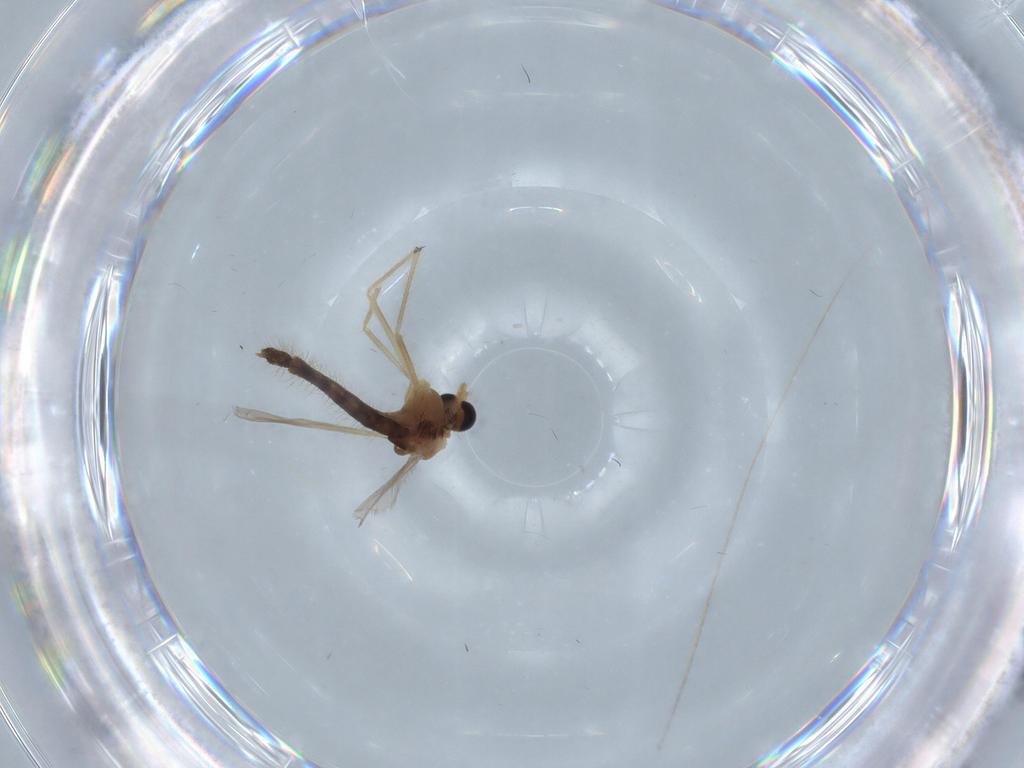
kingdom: Animalia
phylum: Arthropoda
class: Insecta
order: Diptera
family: Chironomidae
